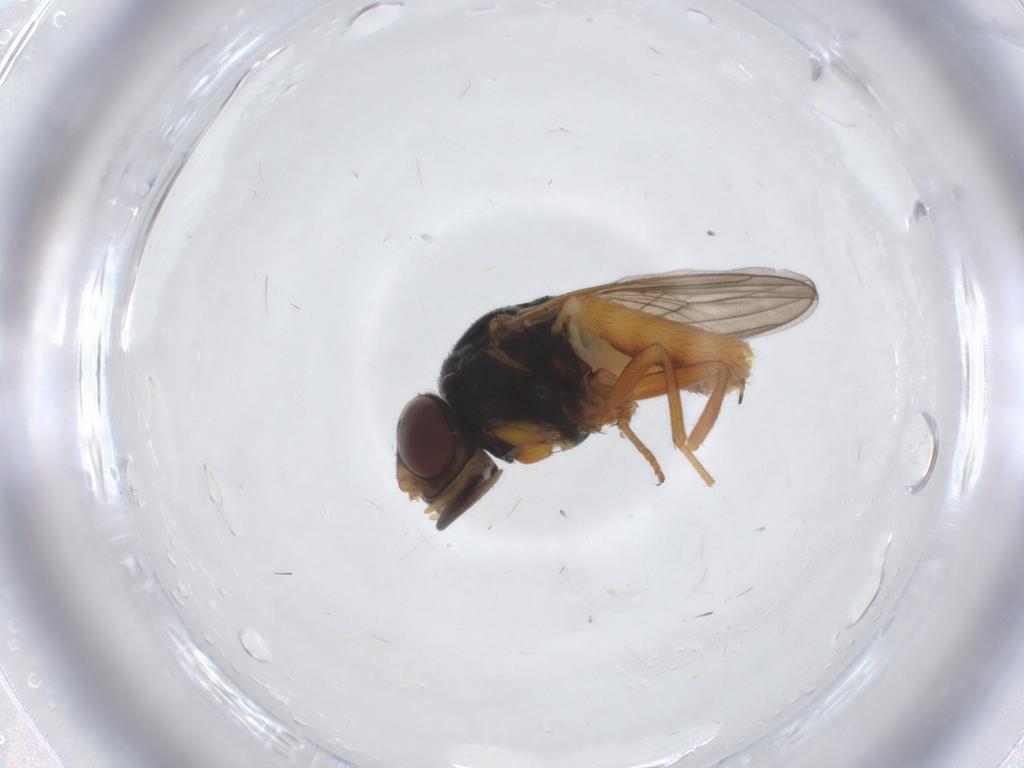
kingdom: Animalia
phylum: Arthropoda
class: Insecta
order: Diptera
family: Chloropidae
